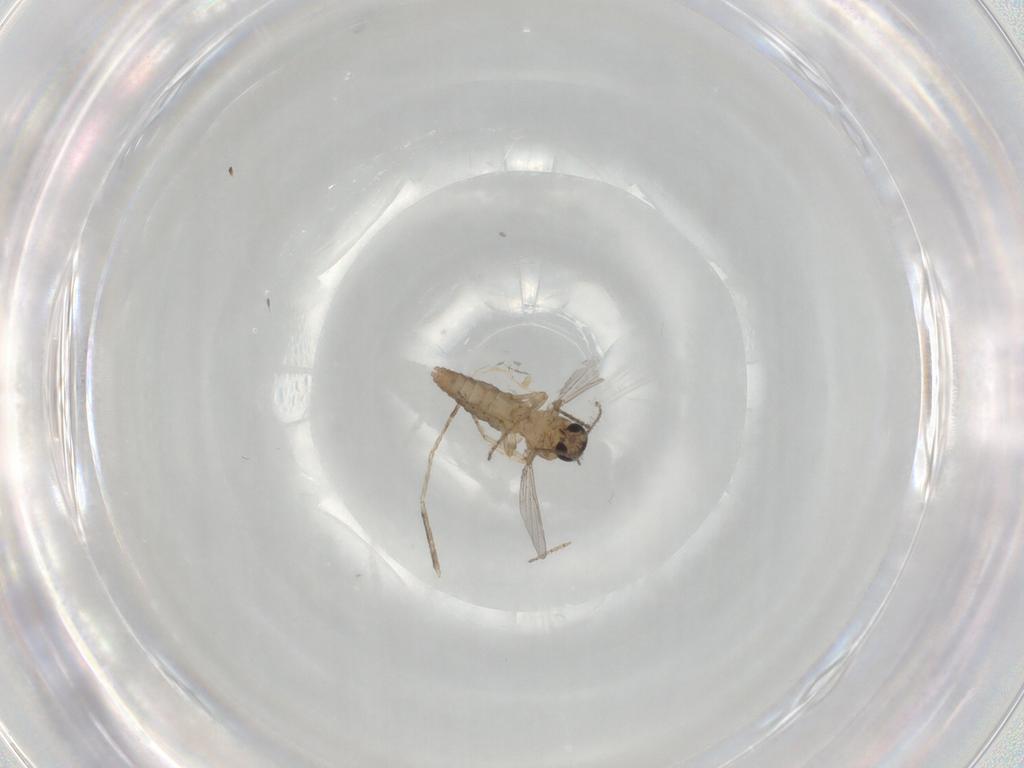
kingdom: Animalia
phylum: Arthropoda
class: Insecta
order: Diptera
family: Ceratopogonidae
